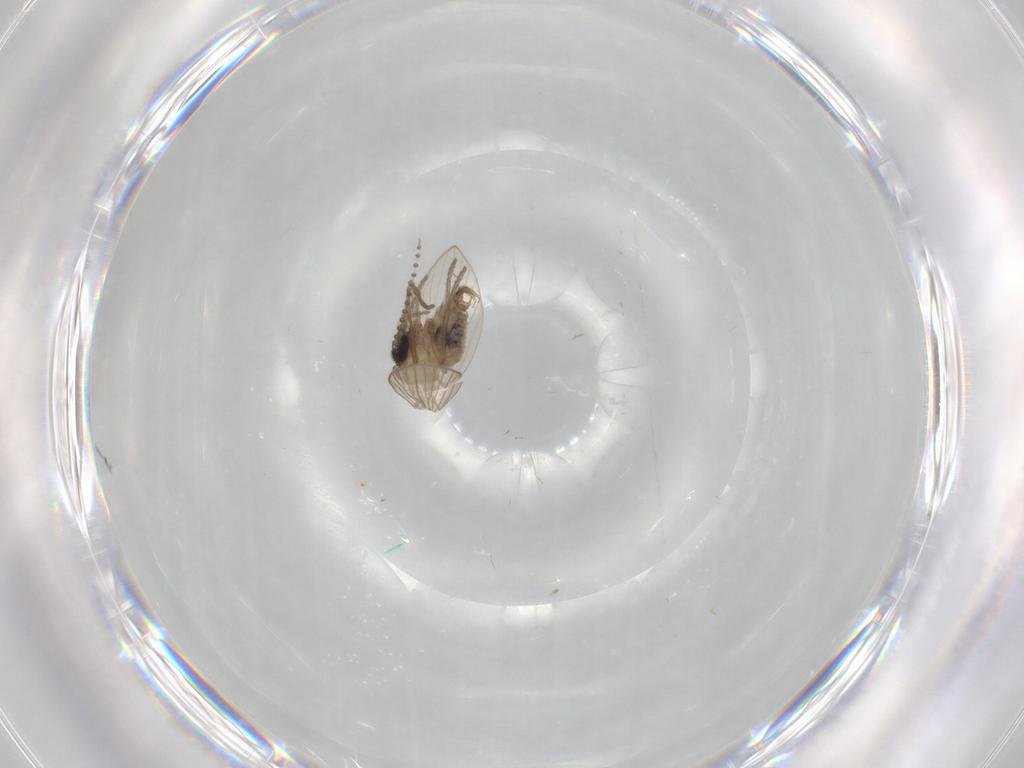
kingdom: Animalia
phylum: Arthropoda
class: Insecta
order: Diptera
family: Psychodidae
